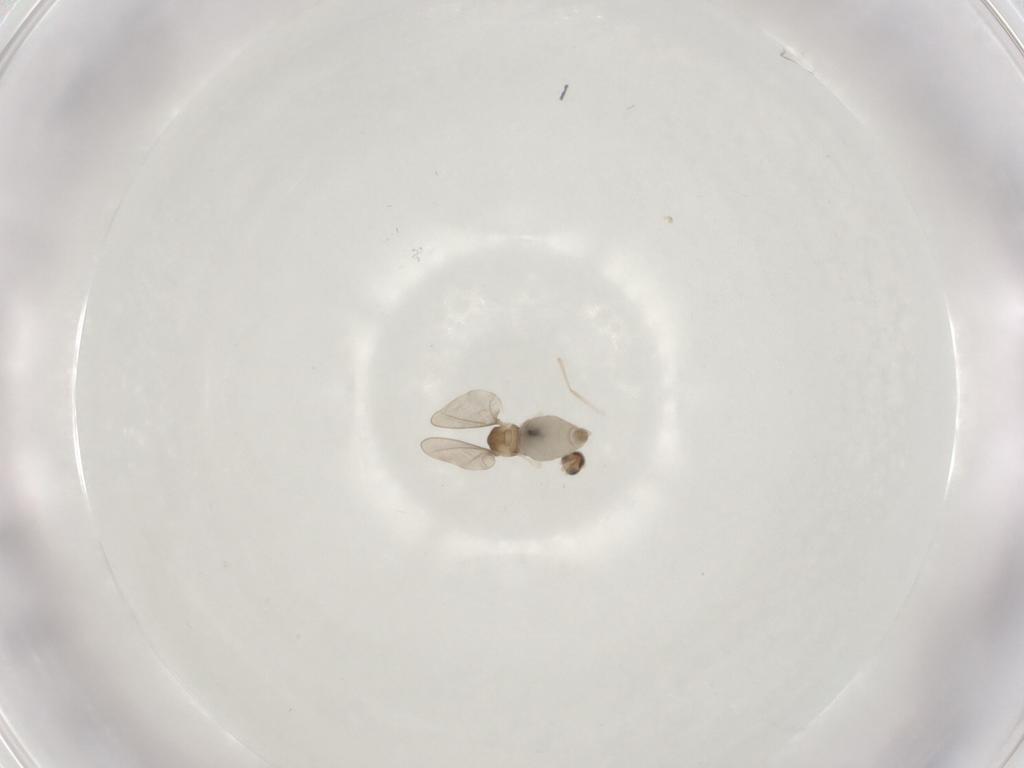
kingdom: Animalia
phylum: Arthropoda
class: Insecta
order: Diptera
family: Cecidomyiidae
